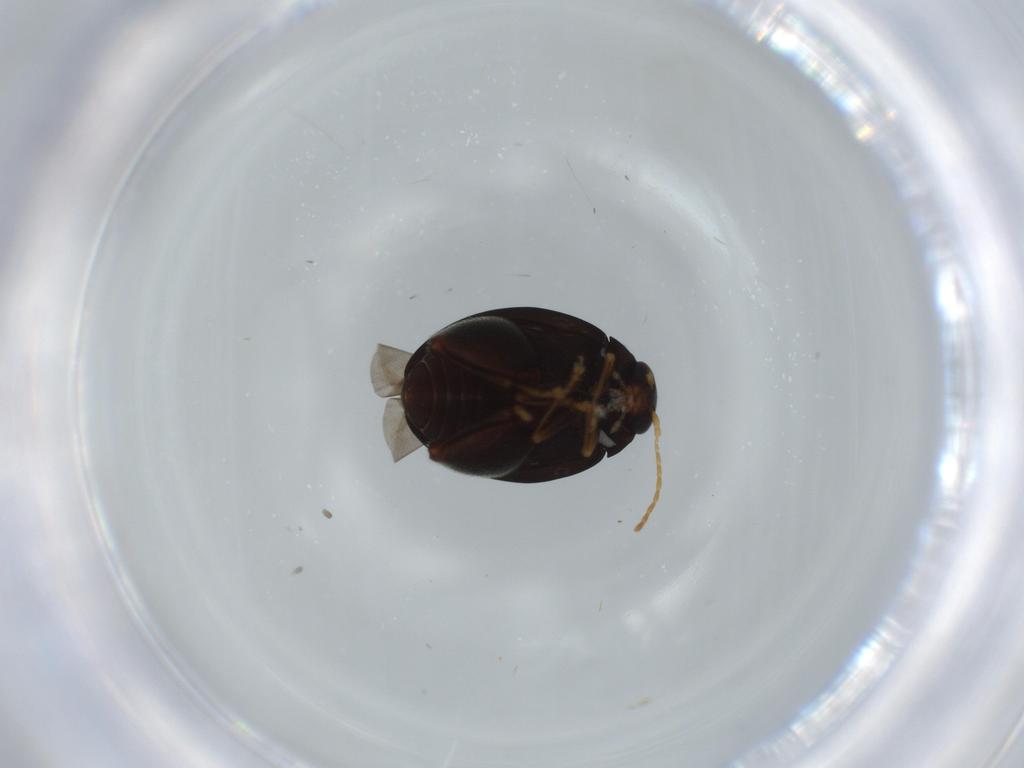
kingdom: Animalia
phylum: Arthropoda
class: Insecta
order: Coleoptera
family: Chrysomelidae
